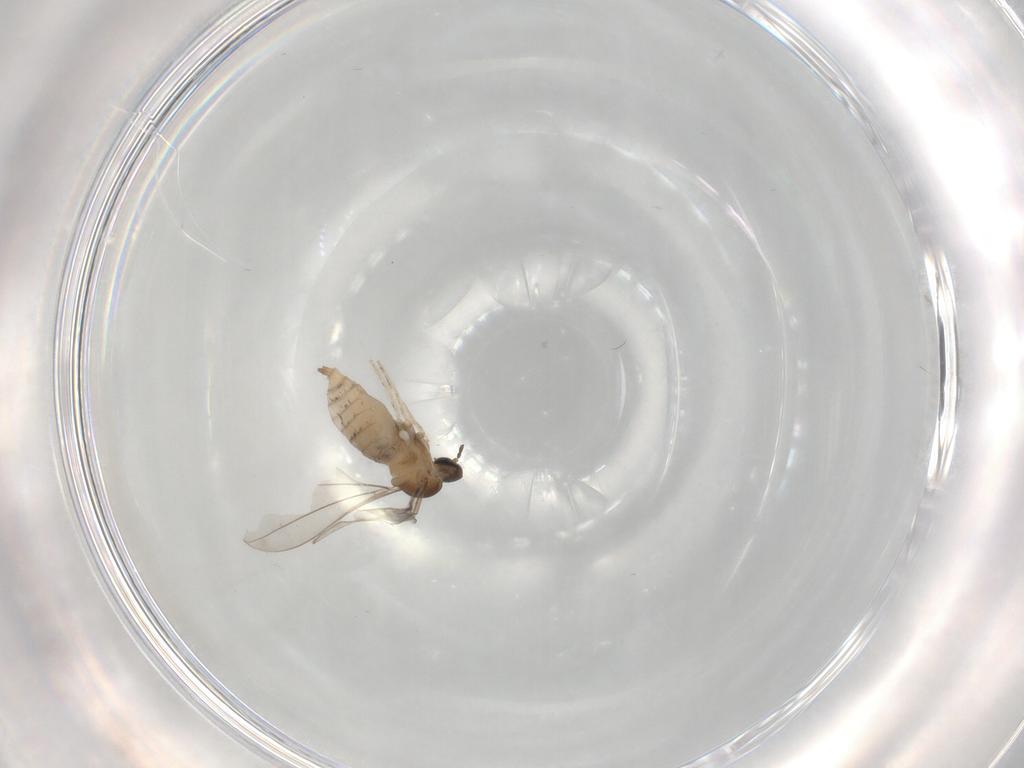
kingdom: Animalia
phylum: Arthropoda
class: Insecta
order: Diptera
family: Cecidomyiidae
